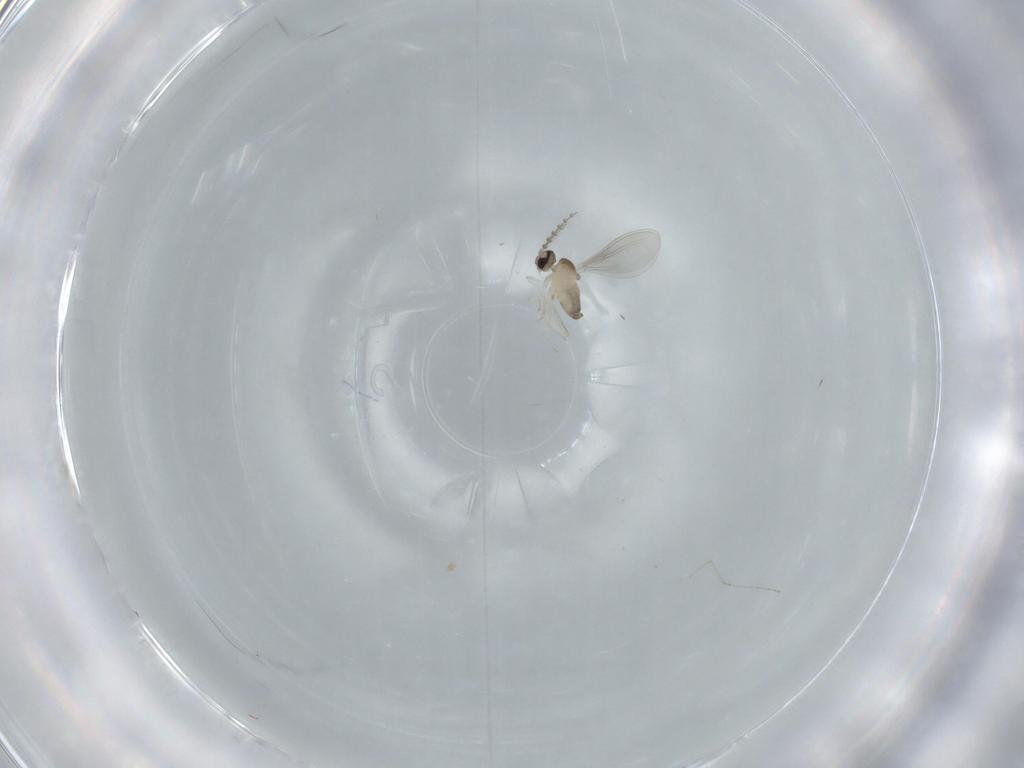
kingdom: Animalia
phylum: Arthropoda
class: Insecta
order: Diptera
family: Cecidomyiidae
